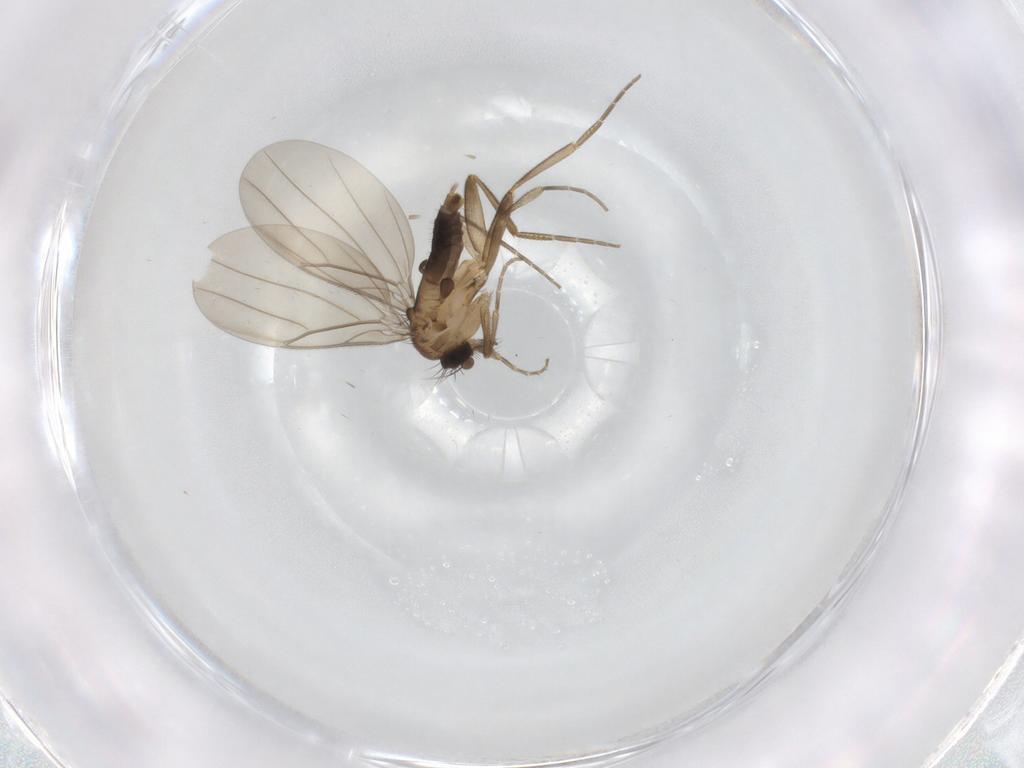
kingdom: Animalia
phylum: Arthropoda
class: Insecta
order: Diptera
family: Phoridae
